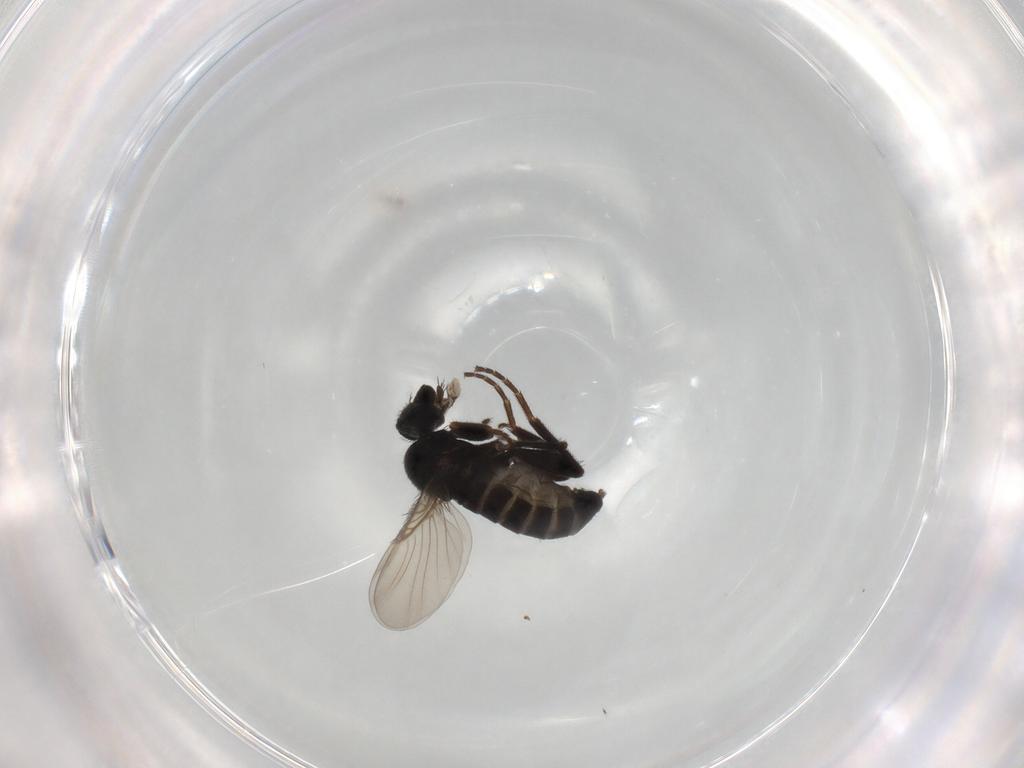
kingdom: Animalia
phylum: Arthropoda
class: Insecta
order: Diptera
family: Phoridae
